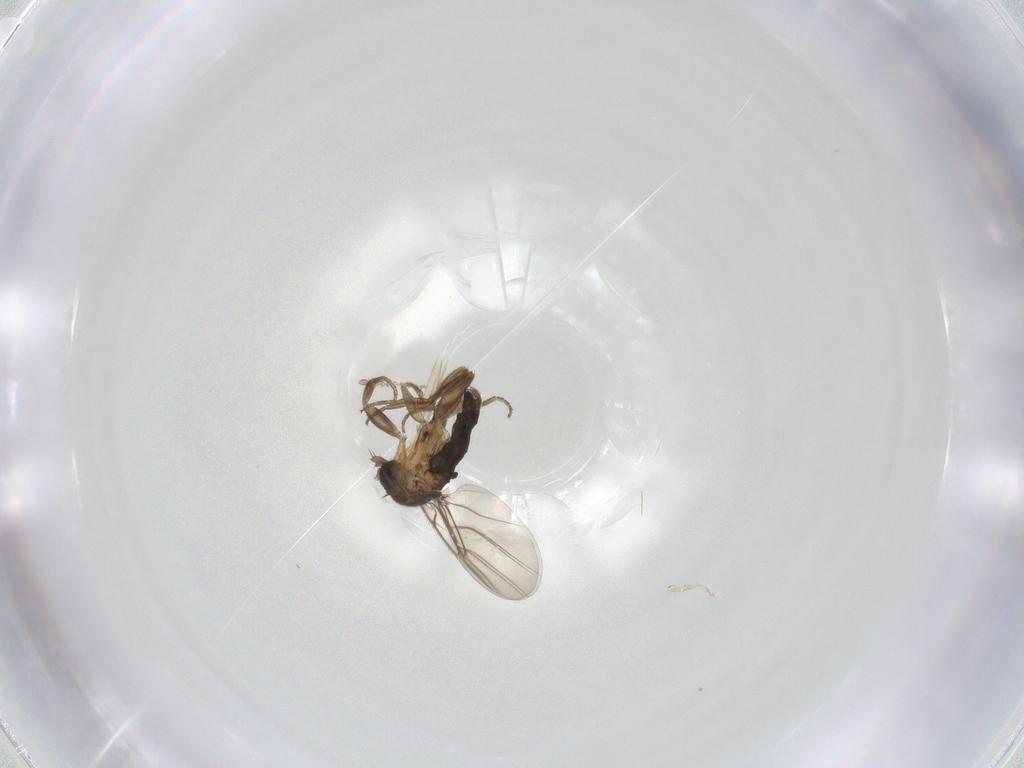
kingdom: Animalia
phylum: Arthropoda
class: Insecta
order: Diptera
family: Cecidomyiidae
